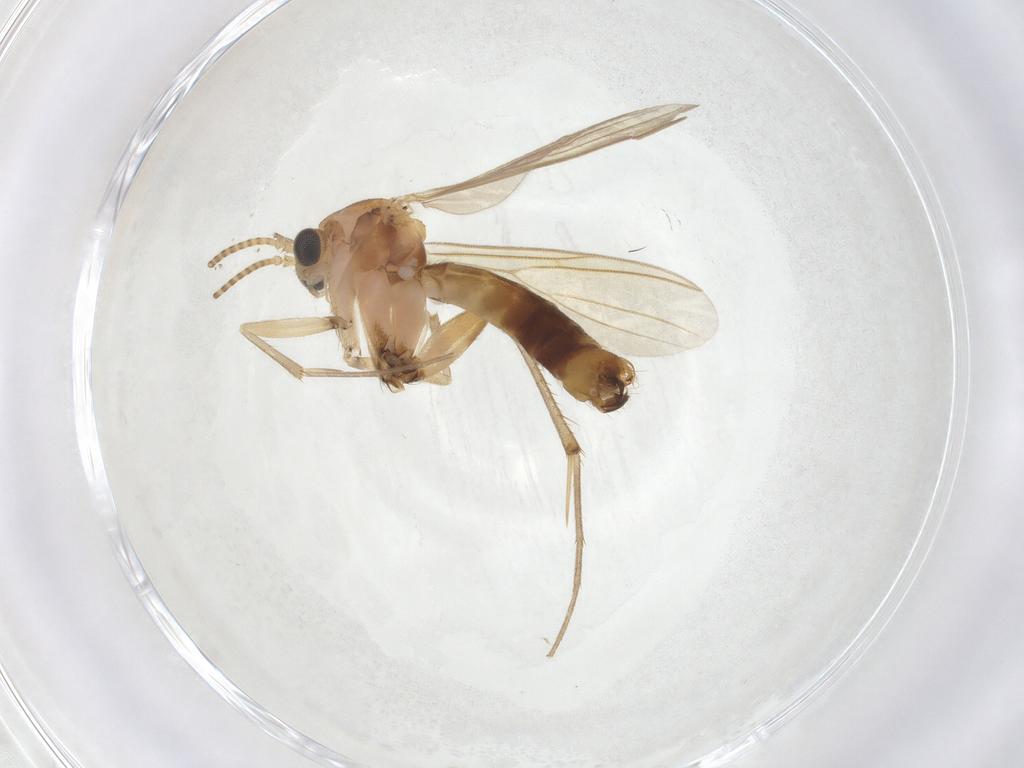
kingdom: Animalia
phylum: Arthropoda
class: Insecta
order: Diptera
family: Mycetophilidae
